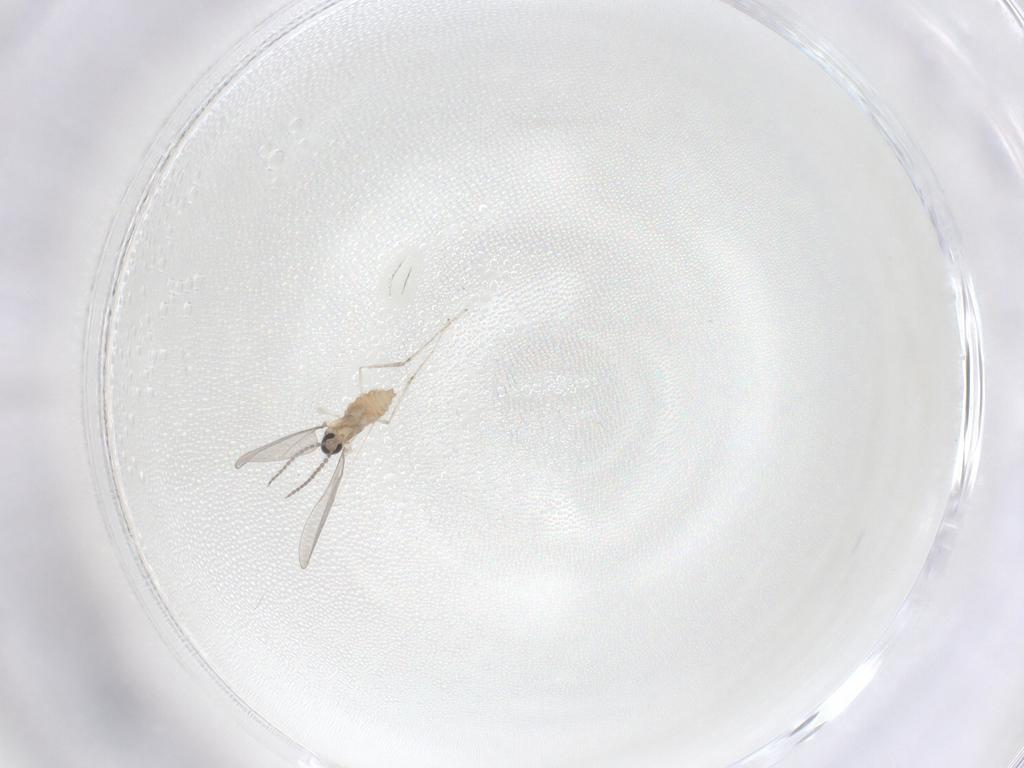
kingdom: Animalia
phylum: Arthropoda
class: Insecta
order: Diptera
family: Cecidomyiidae
